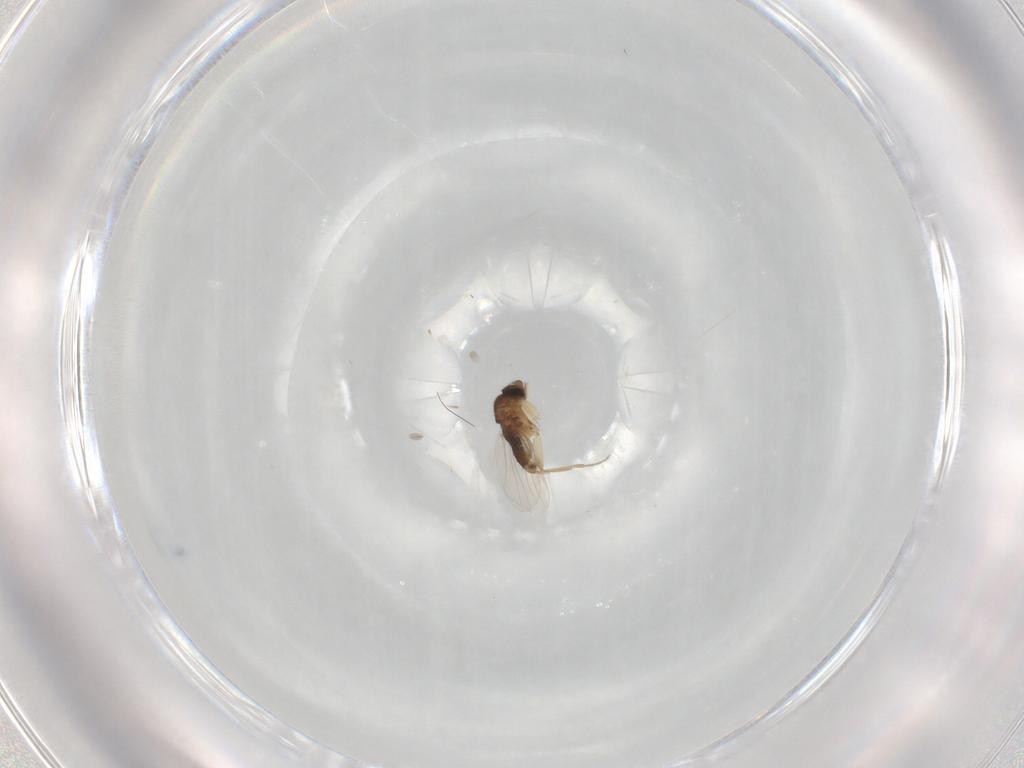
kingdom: Animalia
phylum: Arthropoda
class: Insecta
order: Diptera
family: Phoridae
